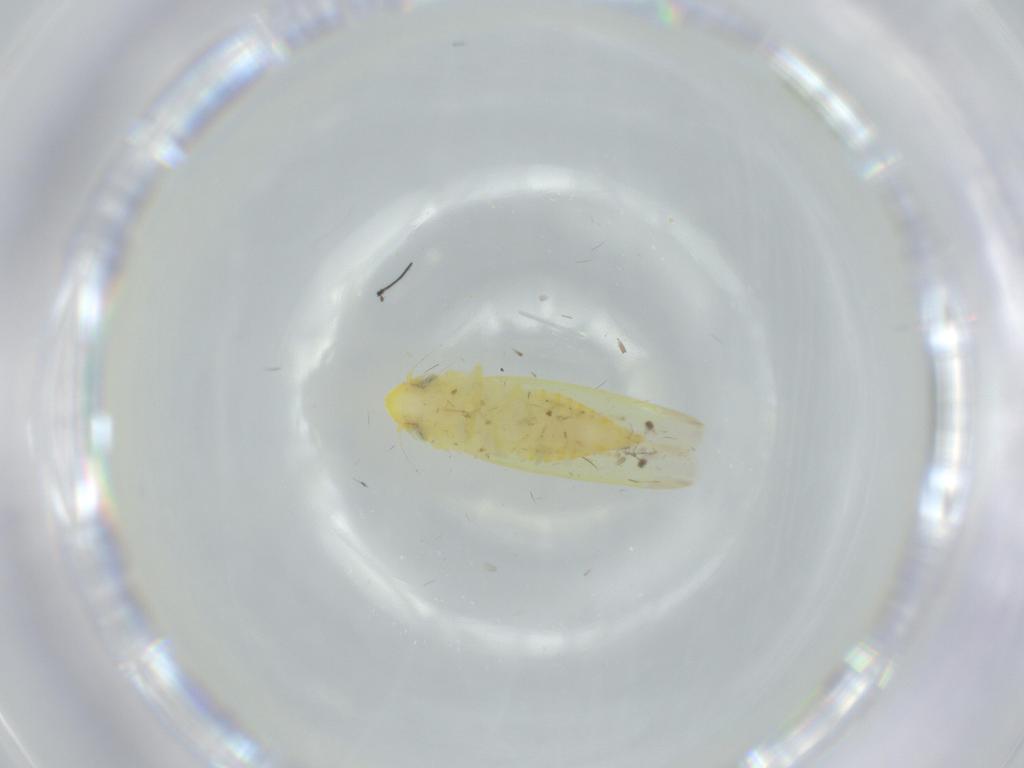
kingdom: Animalia
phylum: Arthropoda
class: Insecta
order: Hemiptera
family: Cicadellidae
